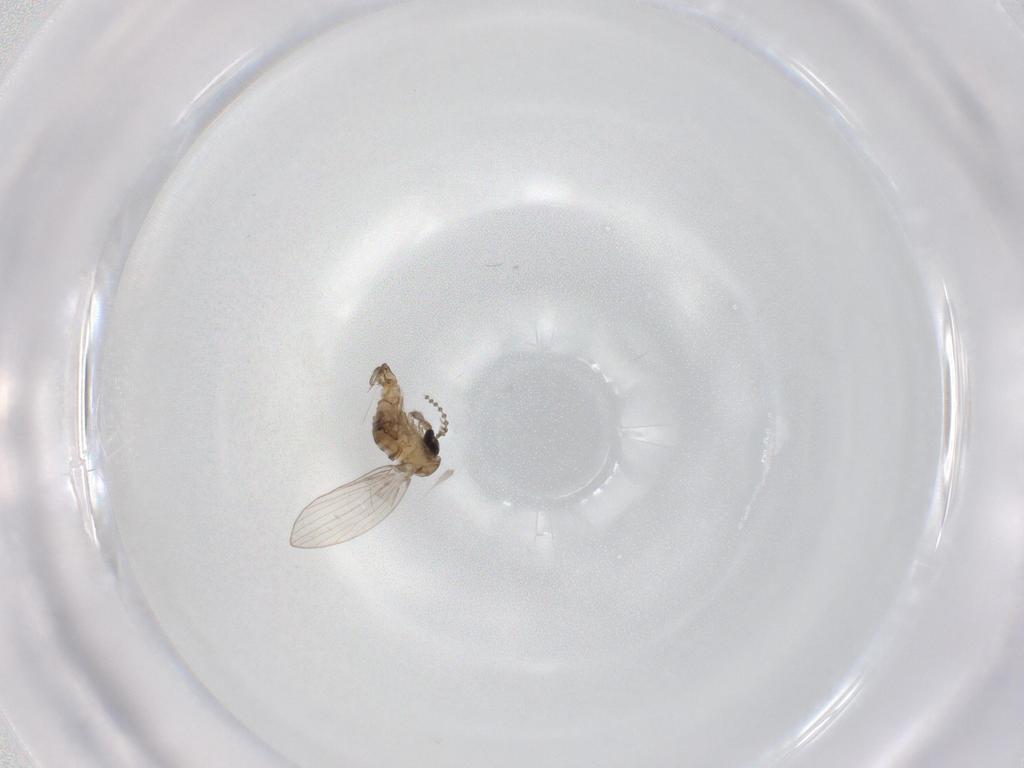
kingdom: Animalia
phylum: Arthropoda
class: Insecta
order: Diptera
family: Psychodidae
